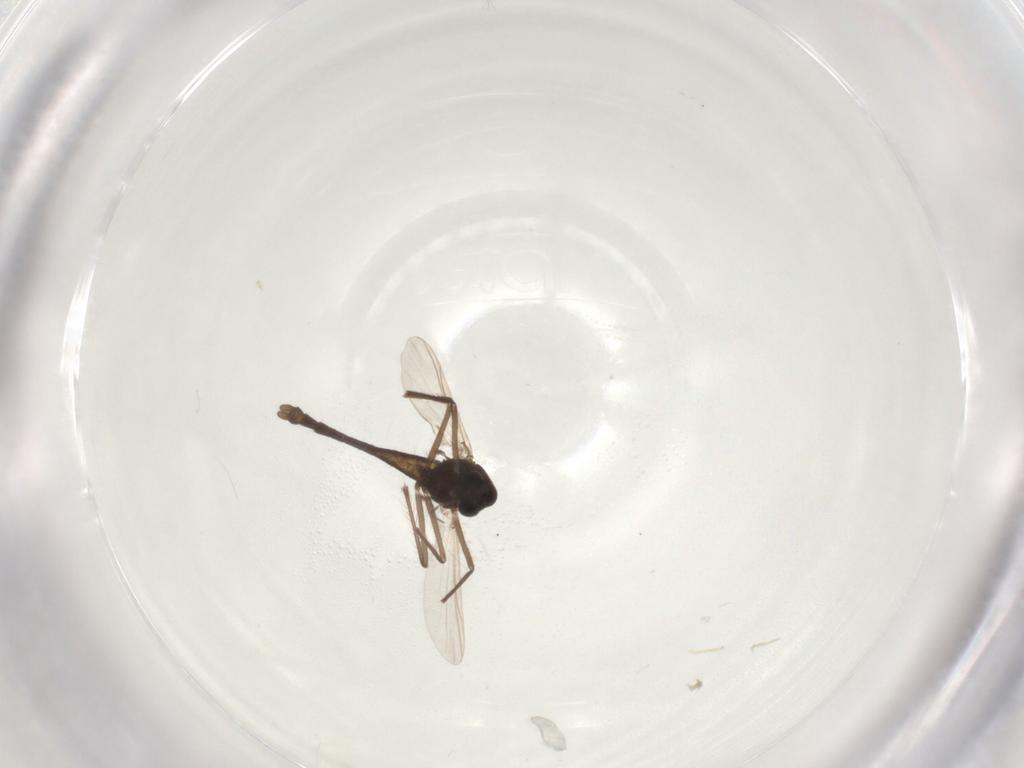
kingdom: Animalia
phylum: Arthropoda
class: Insecta
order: Diptera
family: Chironomidae
